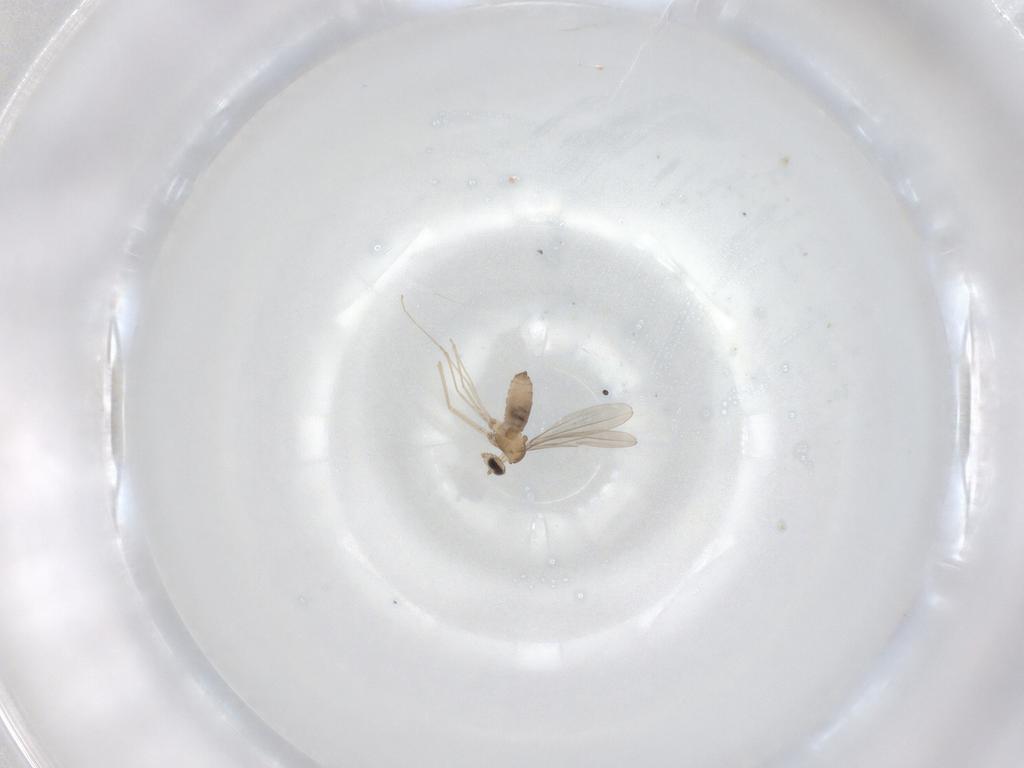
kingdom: Animalia
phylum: Arthropoda
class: Insecta
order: Diptera
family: Cecidomyiidae
